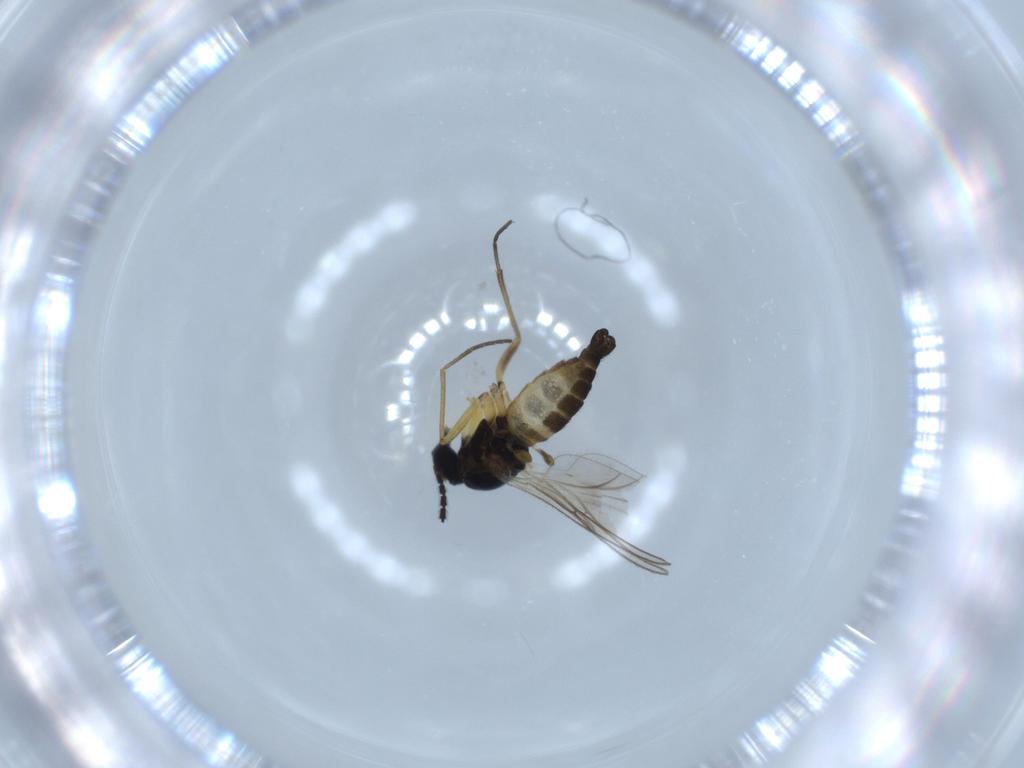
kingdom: Animalia
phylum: Arthropoda
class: Insecta
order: Diptera
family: Sciaridae
